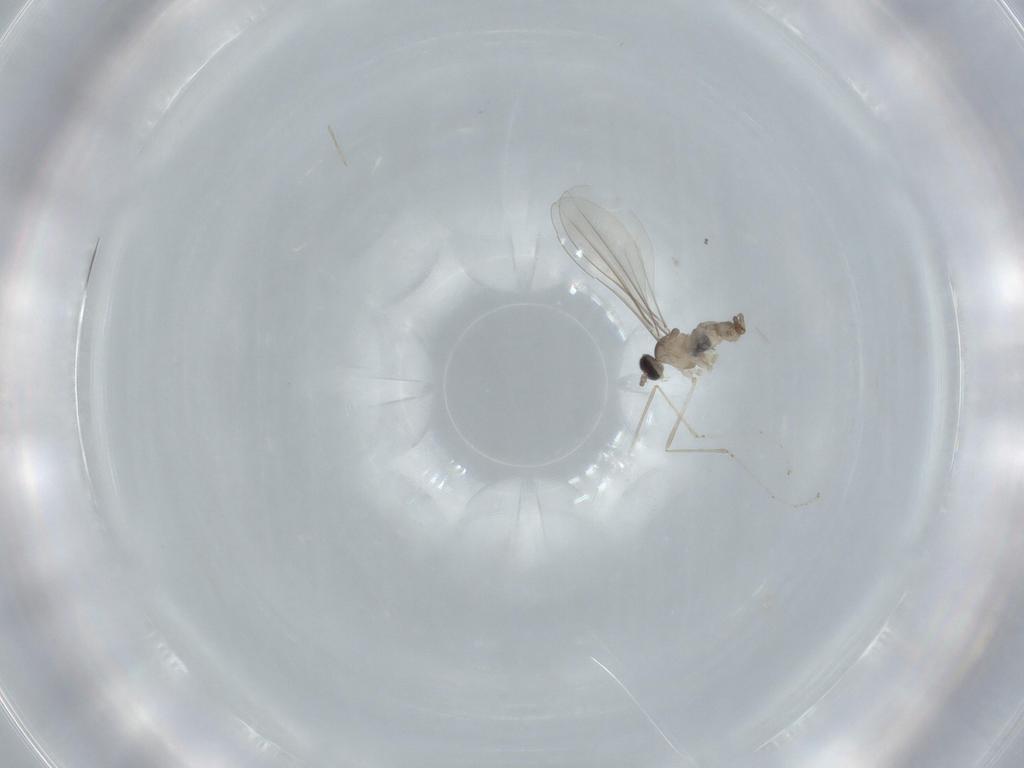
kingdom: Animalia
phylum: Arthropoda
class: Insecta
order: Diptera
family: Cecidomyiidae
